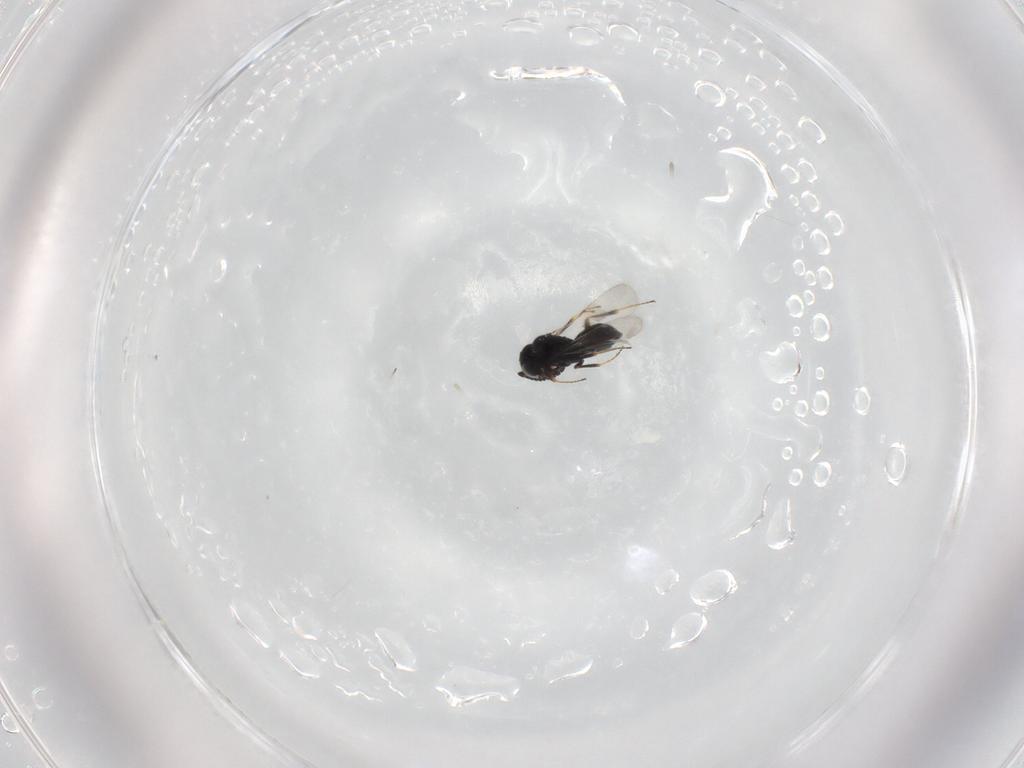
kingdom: Animalia
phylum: Arthropoda
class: Insecta
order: Hymenoptera
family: Scelionidae
